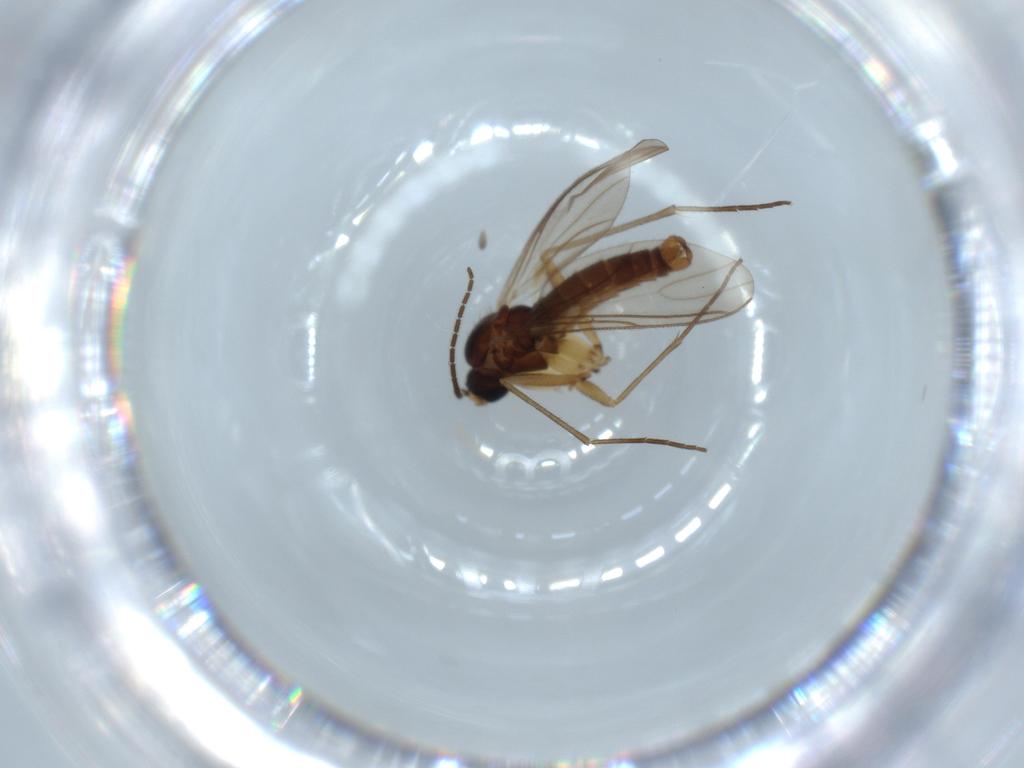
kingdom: Animalia
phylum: Arthropoda
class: Insecta
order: Diptera
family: Sciaridae
